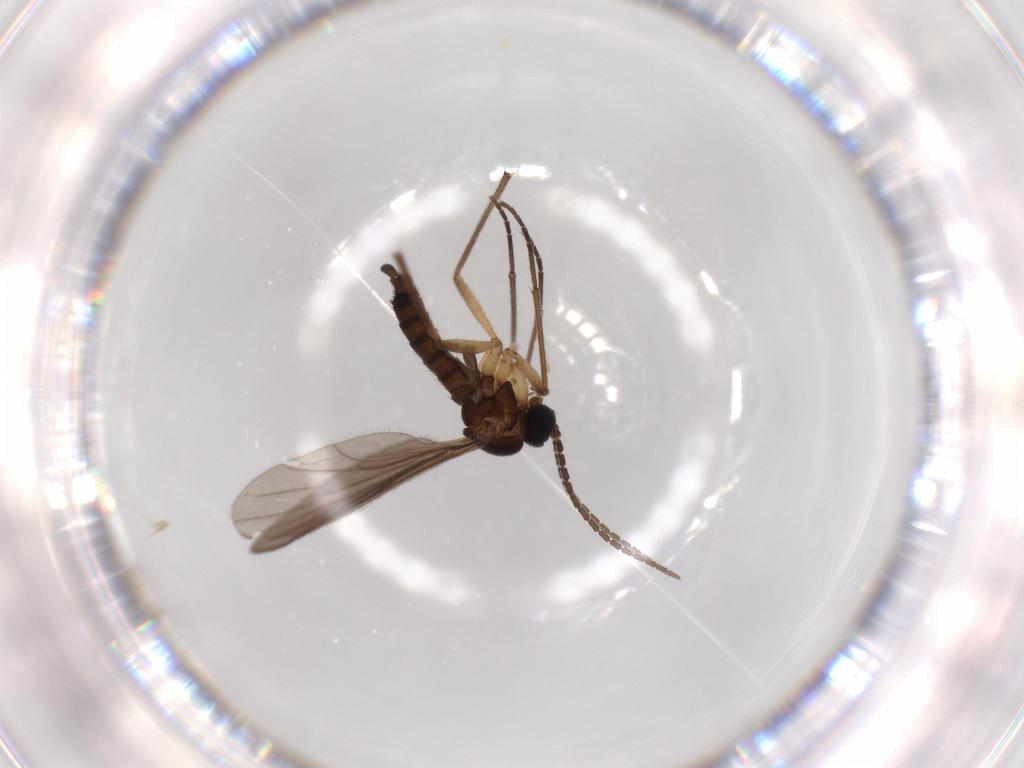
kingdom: Animalia
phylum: Arthropoda
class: Insecta
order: Diptera
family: Sciaridae
